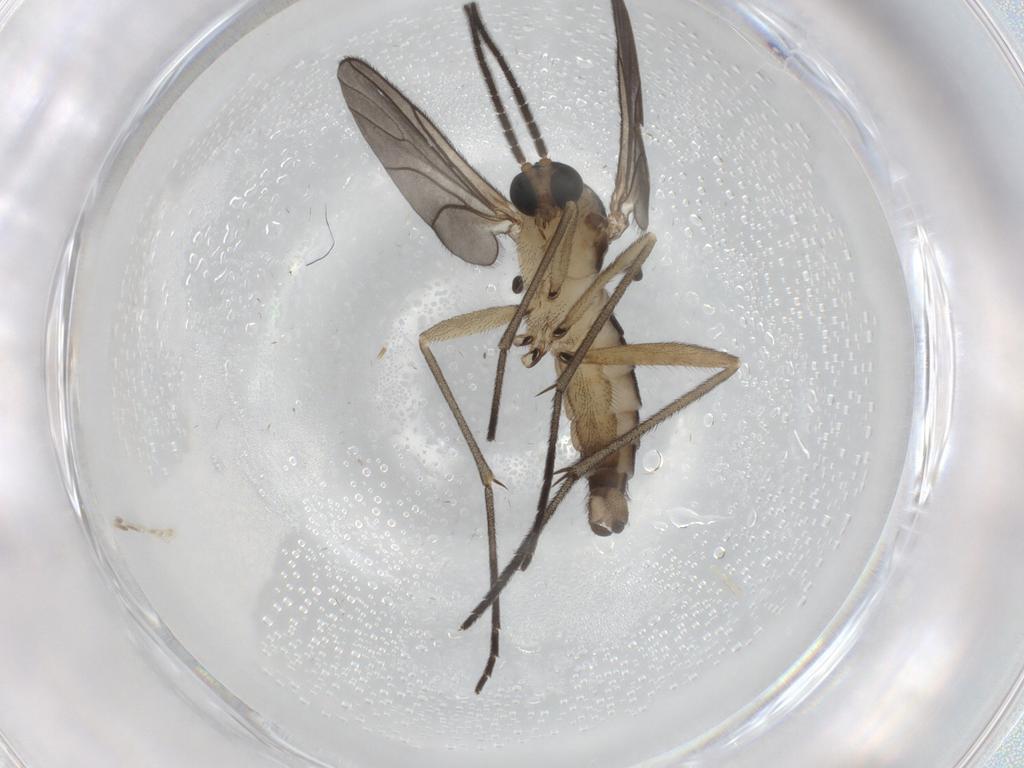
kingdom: Animalia
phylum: Arthropoda
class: Insecta
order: Diptera
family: Sciaridae
